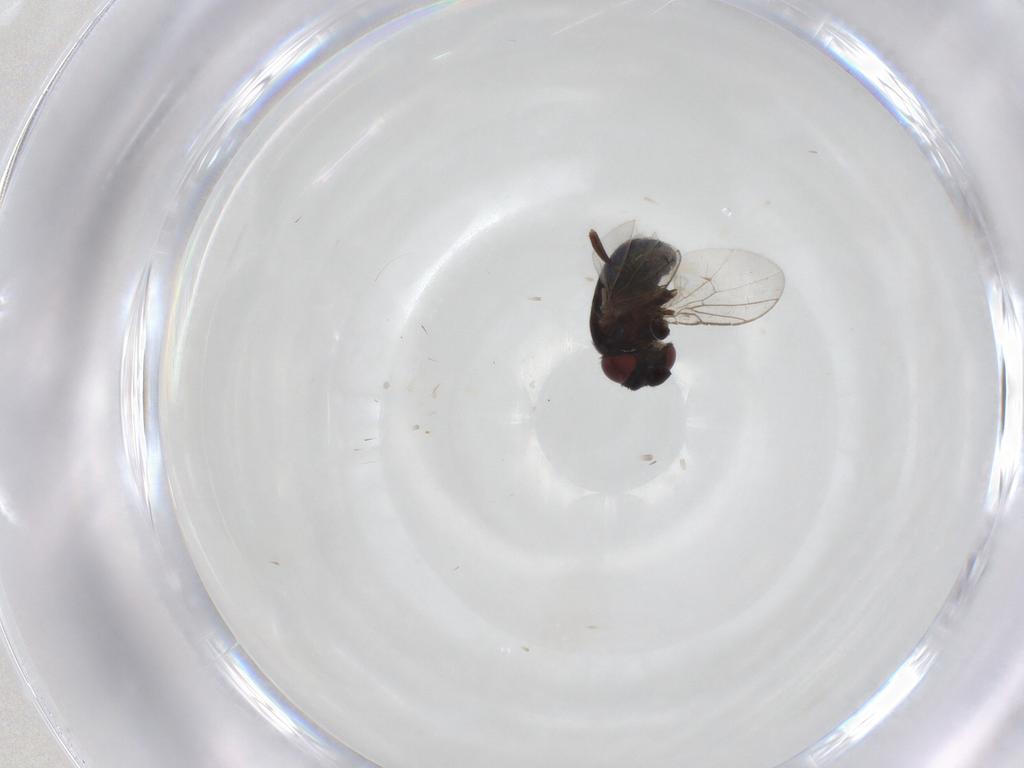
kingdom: Animalia
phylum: Arthropoda
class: Insecta
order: Diptera
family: Cryptochetidae
